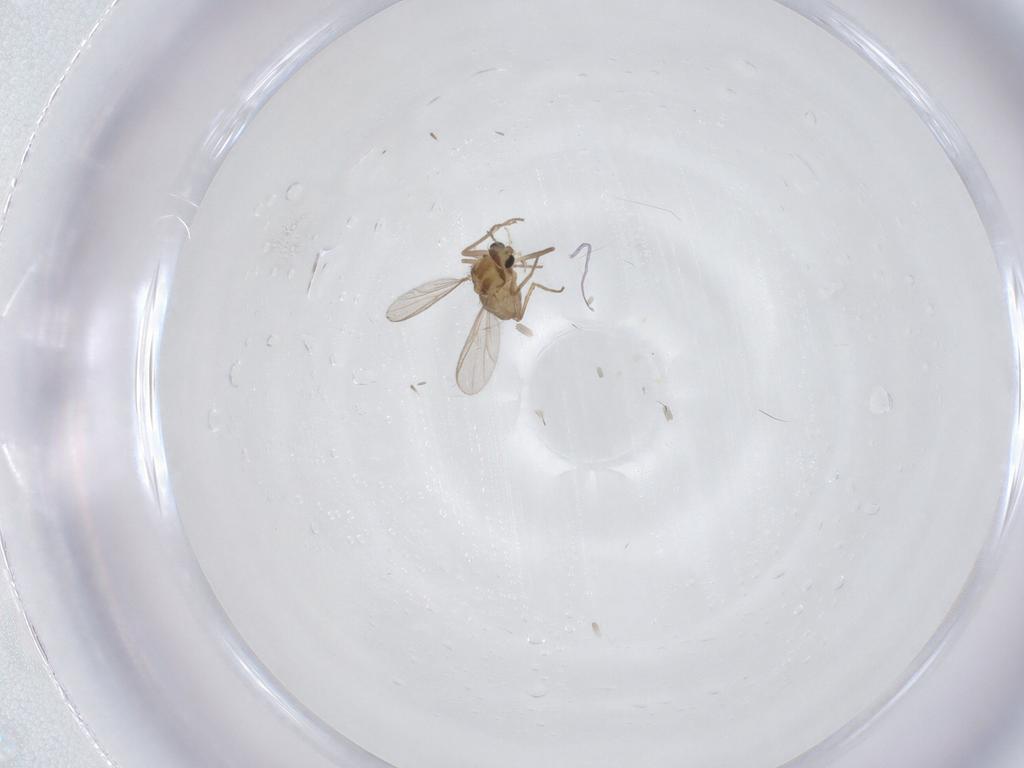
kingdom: Animalia
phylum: Arthropoda
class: Insecta
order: Diptera
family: Chironomidae
